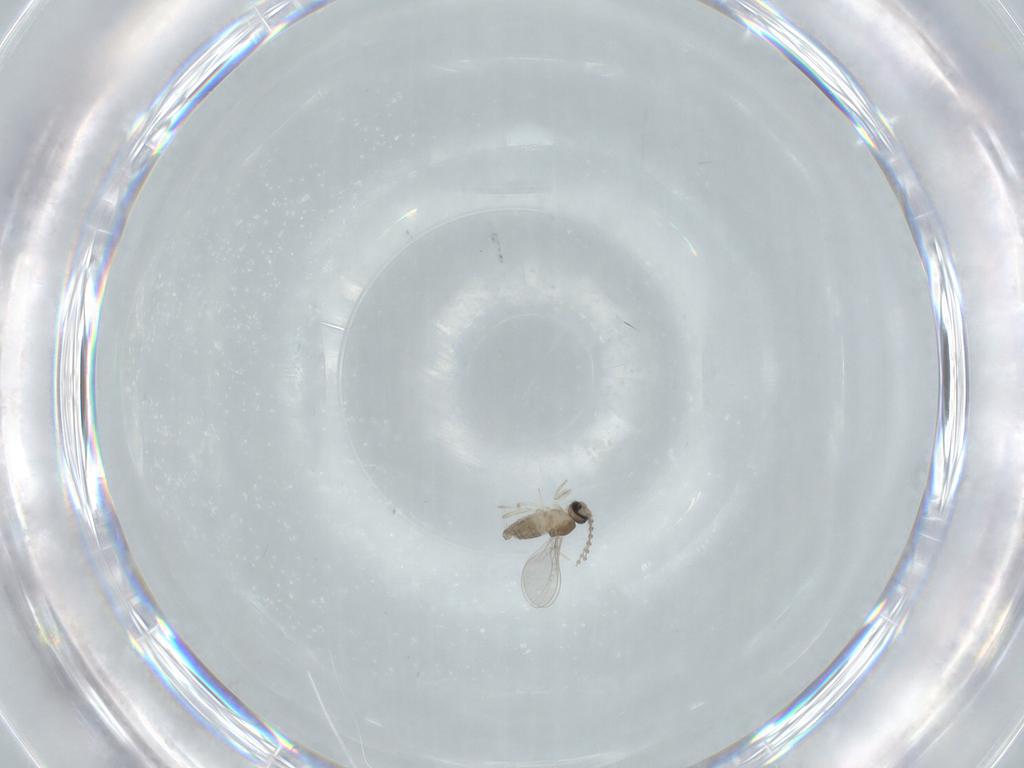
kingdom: Animalia
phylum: Arthropoda
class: Insecta
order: Diptera
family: Cecidomyiidae
